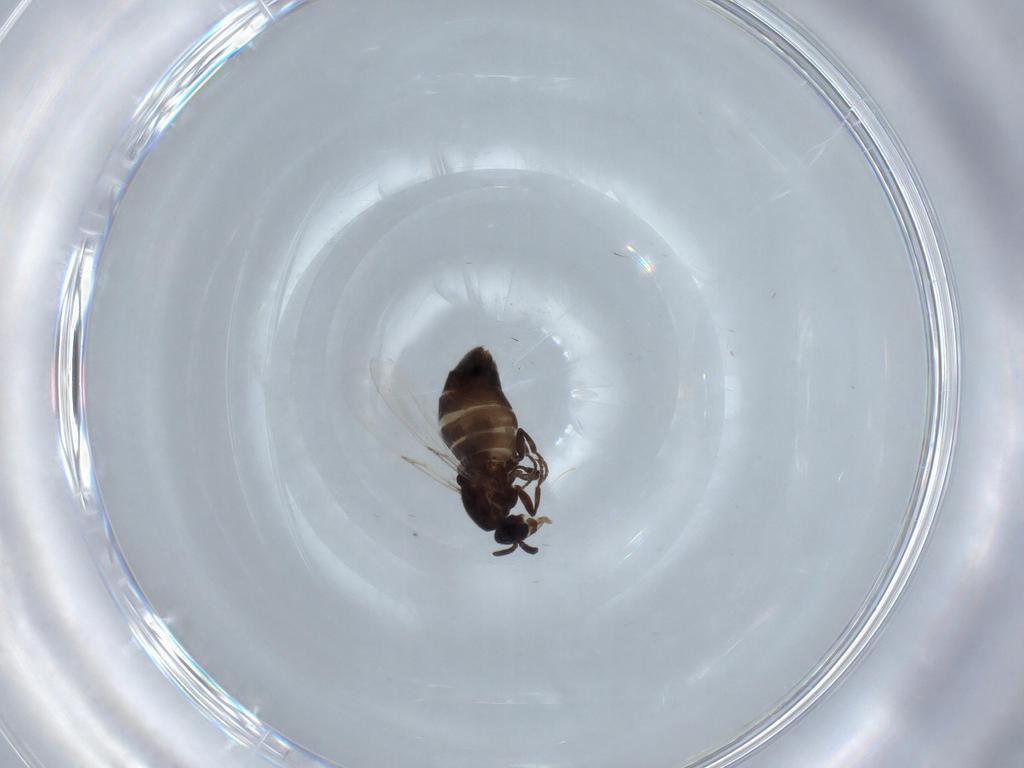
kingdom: Animalia
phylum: Arthropoda
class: Insecta
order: Diptera
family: Scatopsidae
